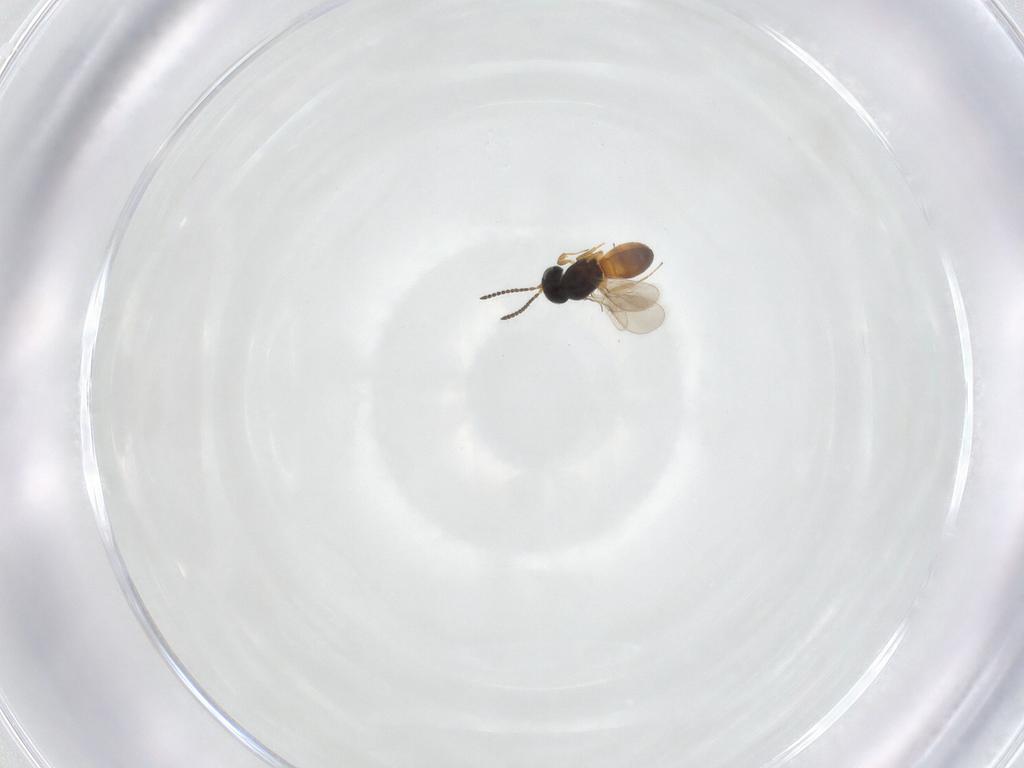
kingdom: Animalia
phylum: Arthropoda
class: Insecta
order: Hymenoptera
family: Scelionidae
